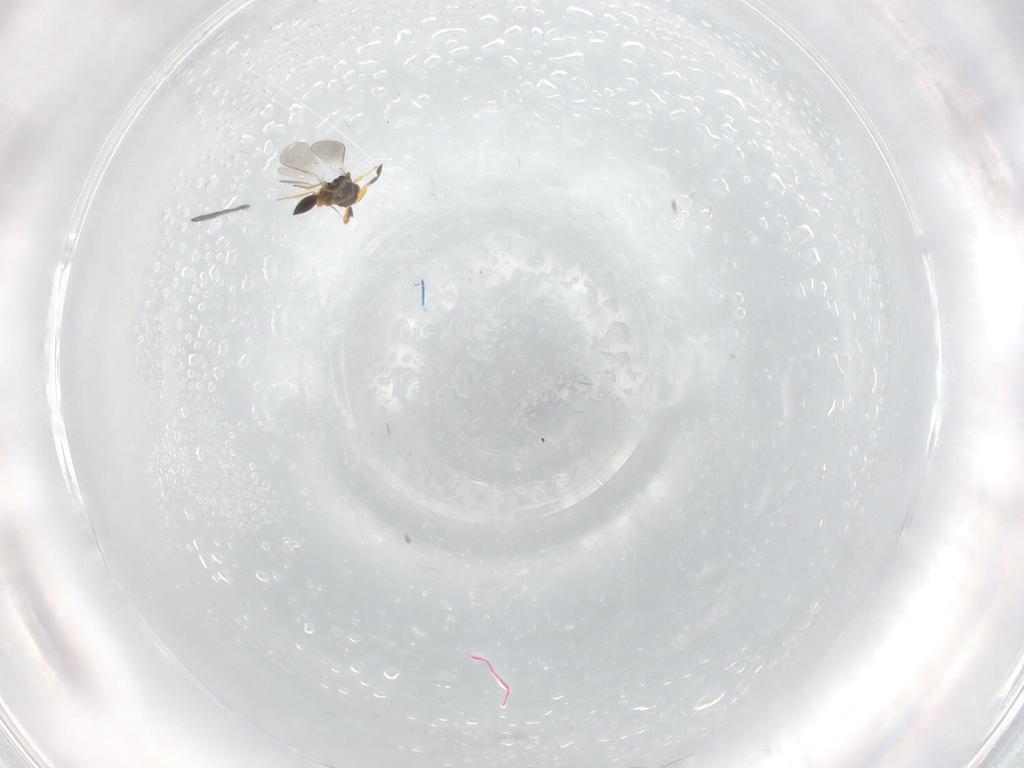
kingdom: Animalia
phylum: Arthropoda
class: Insecta
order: Hymenoptera
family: Platygastridae
